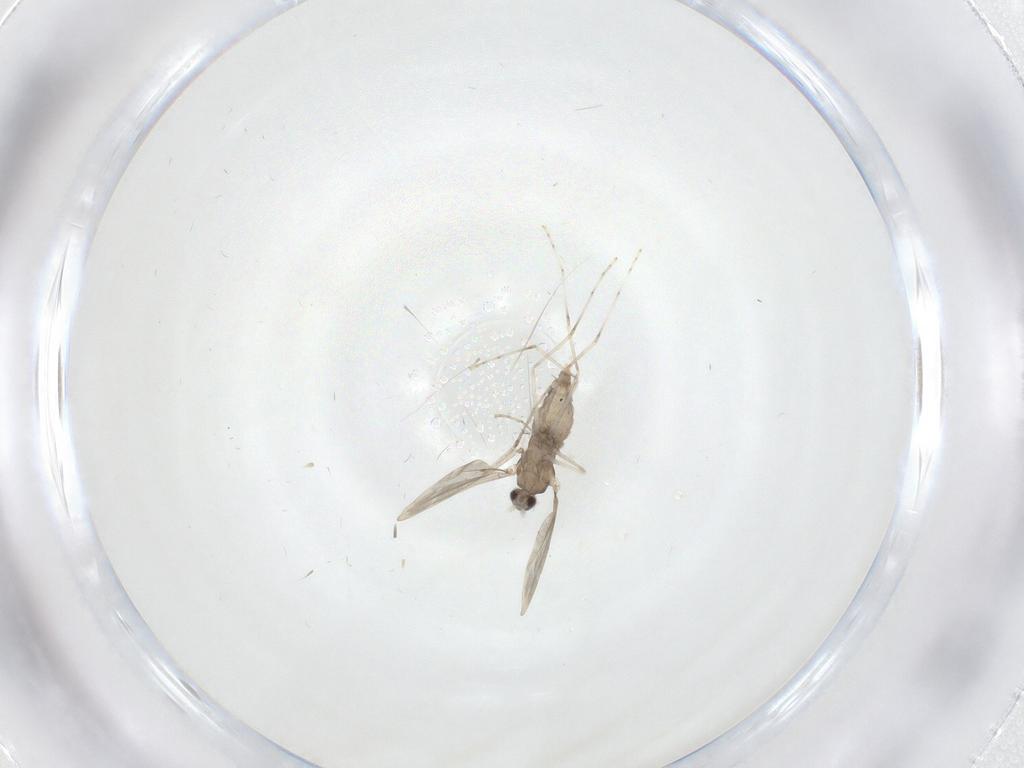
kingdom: Animalia
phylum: Arthropoda
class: Insecta
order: Diptera
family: Cecidomyiidae
